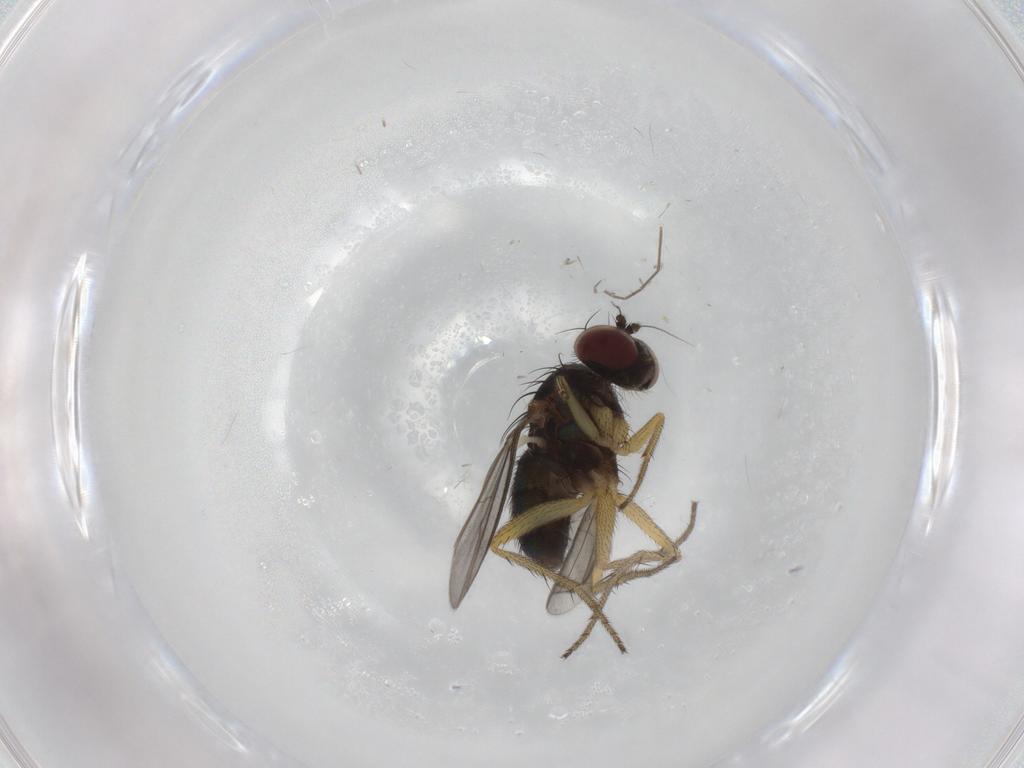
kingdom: Animalia
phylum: Arthropoda
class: Insecta
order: Diptera
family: Chironomidae
